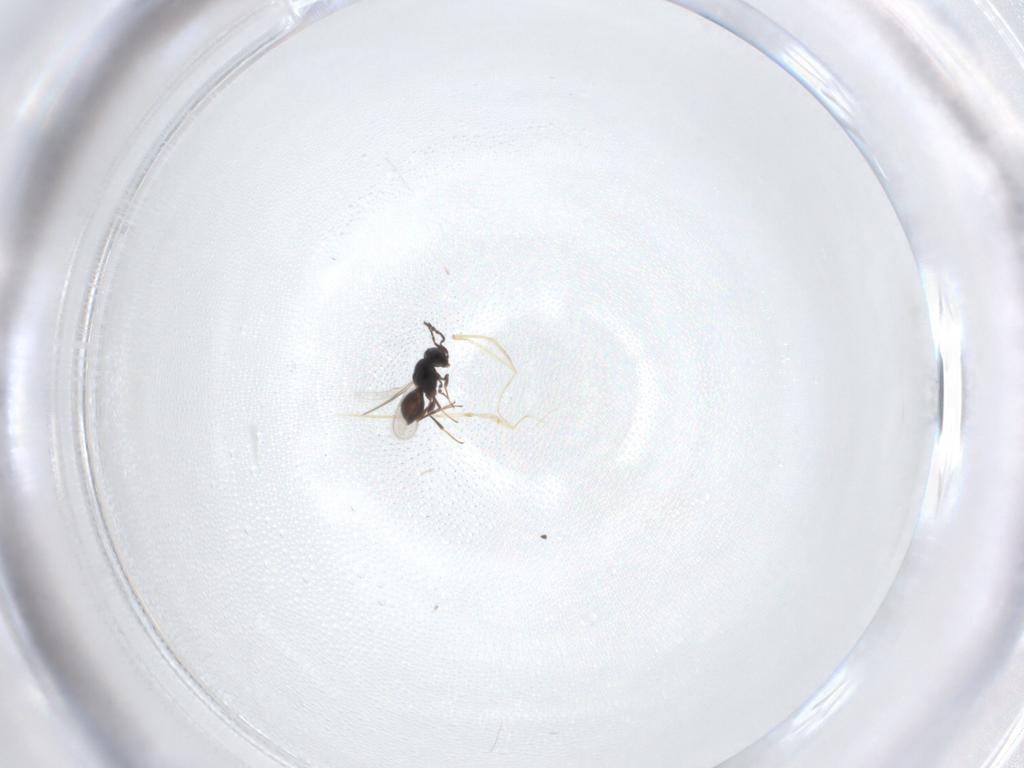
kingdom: Animalia
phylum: Arthropoda
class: Insecta
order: Hymenoptera
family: Scelionidae
